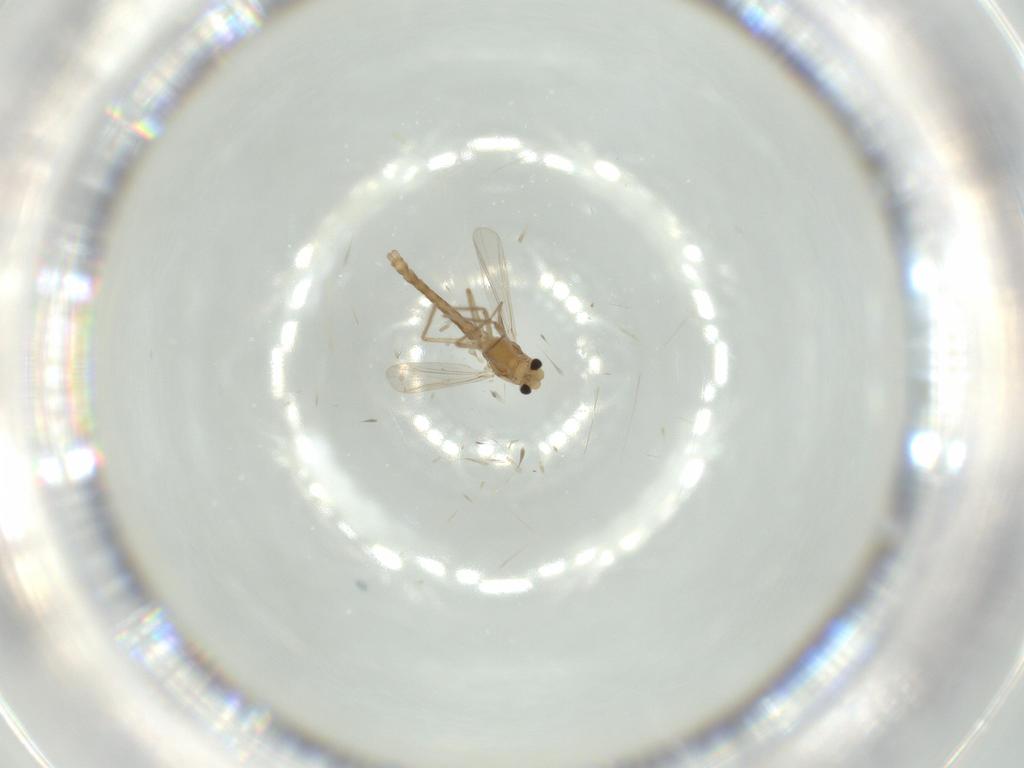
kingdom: Animalia
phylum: Arthropoda
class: Insecta
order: Diptera
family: Chironomidae
